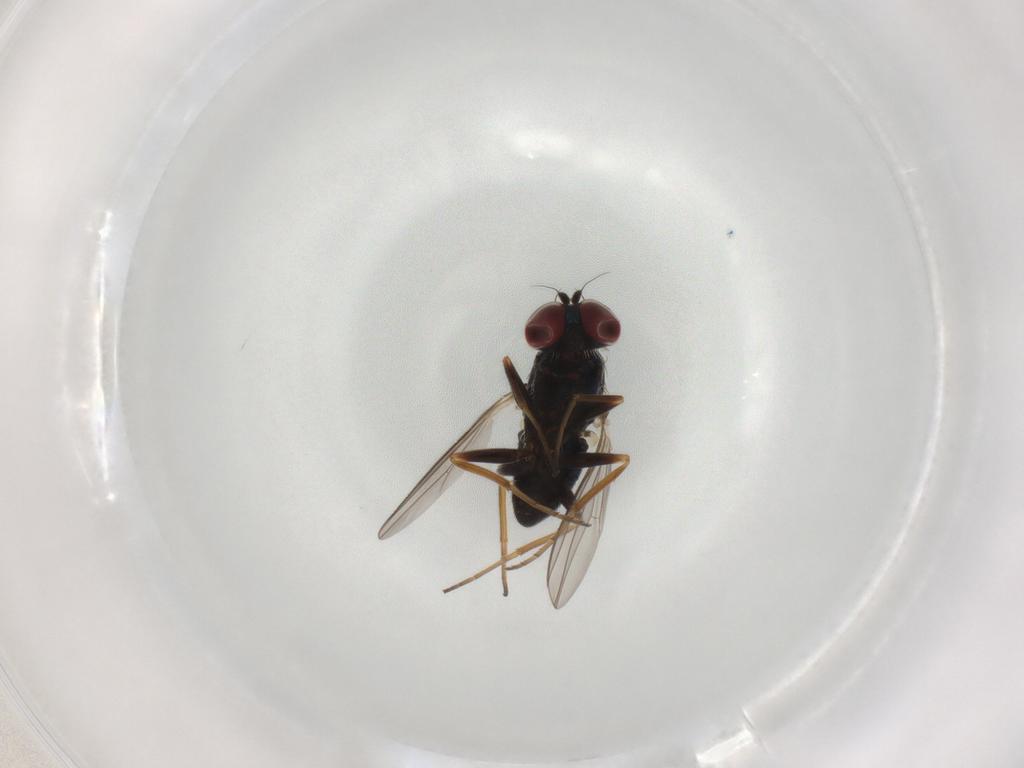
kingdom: Animalia
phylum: Arthropoda
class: Insecta
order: Diptera
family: Dolichopodidae
